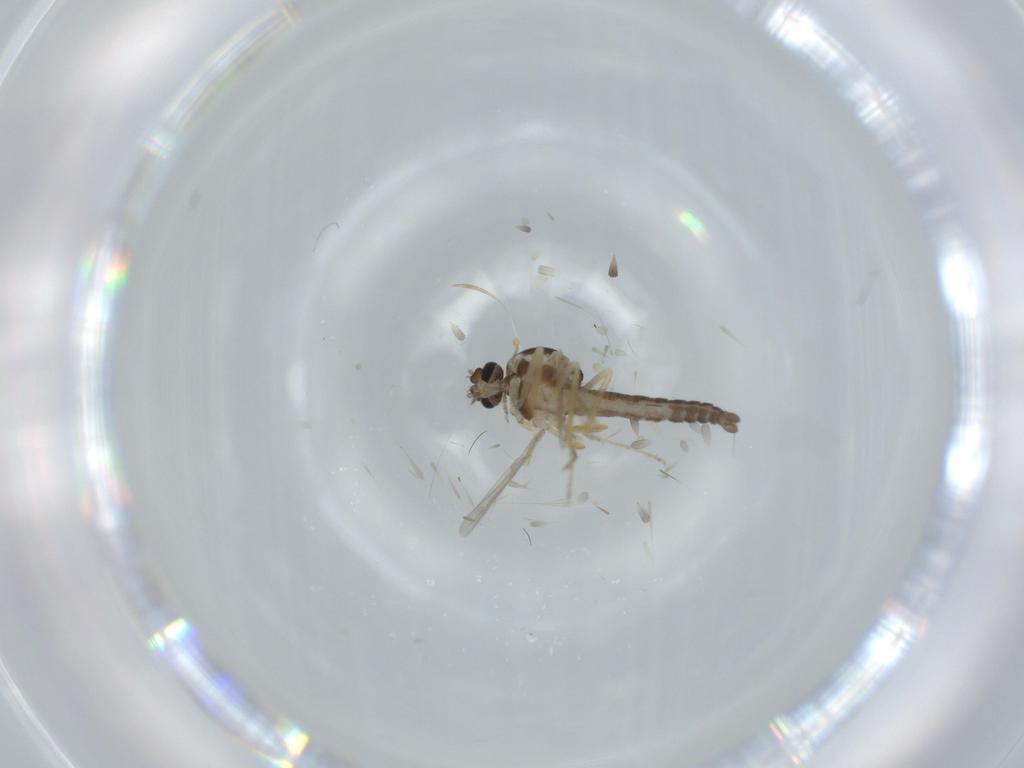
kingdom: Animalia
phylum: Arthropoda
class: Insecta
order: Diptera
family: Ceratopogonidae
